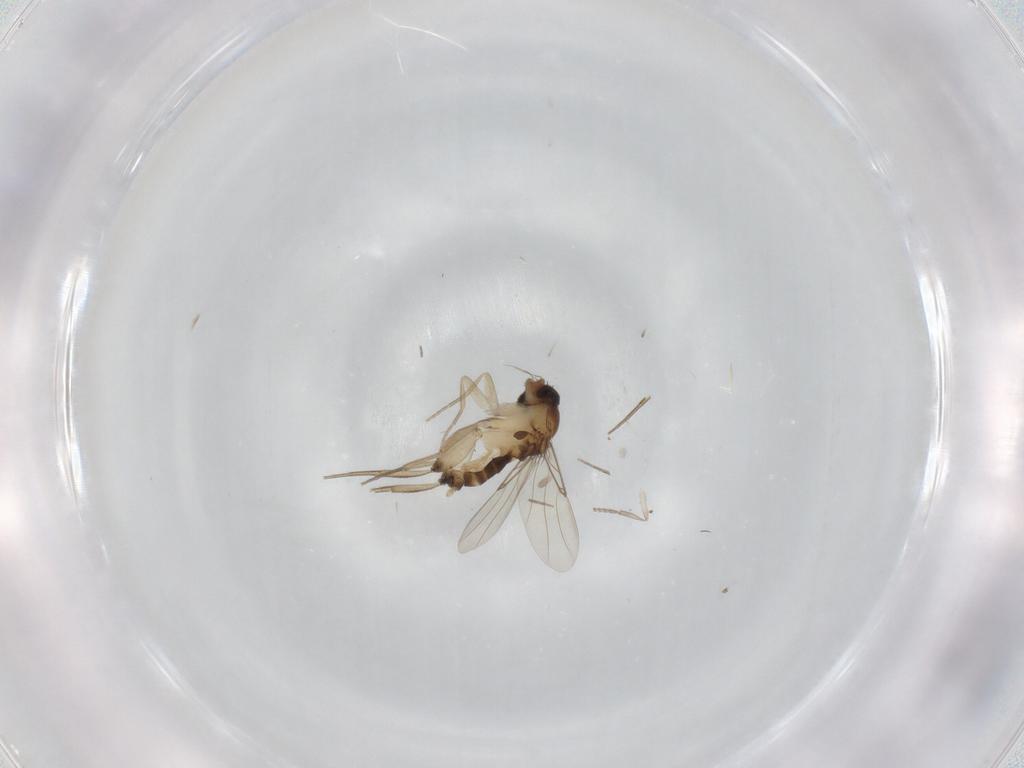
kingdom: Animalia
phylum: Arthropoda
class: Insecta
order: Diptera
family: Phoridae
